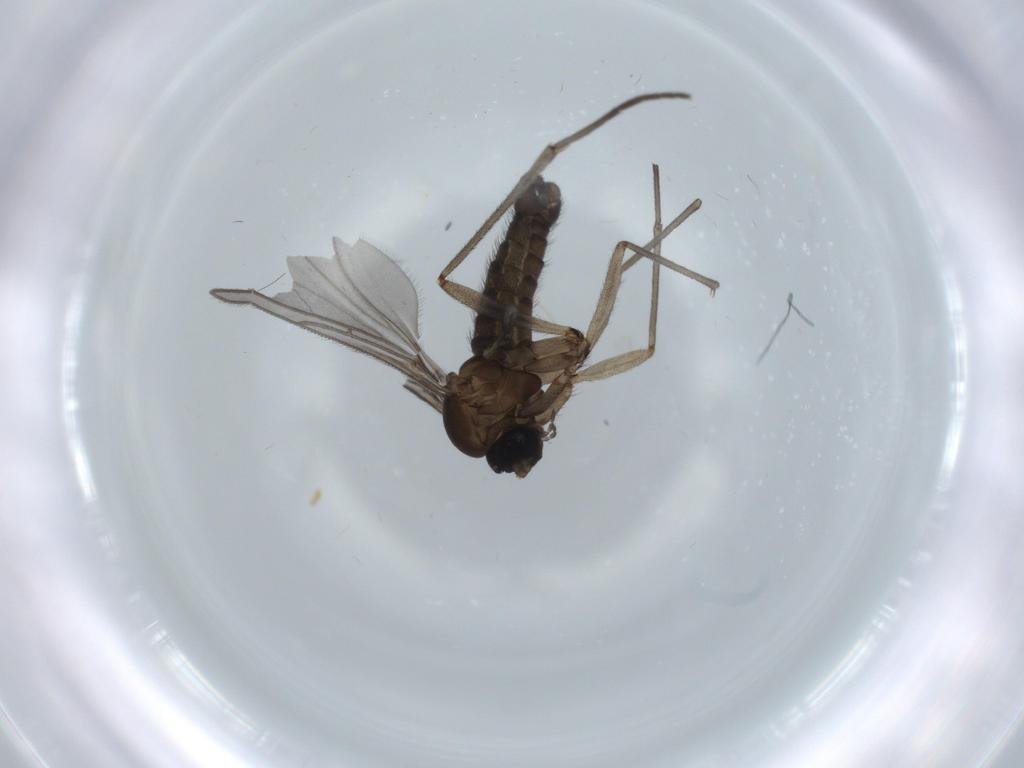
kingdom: Animalia
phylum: Arthropoda
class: Insecta
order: Diptera
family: Sciaridae
